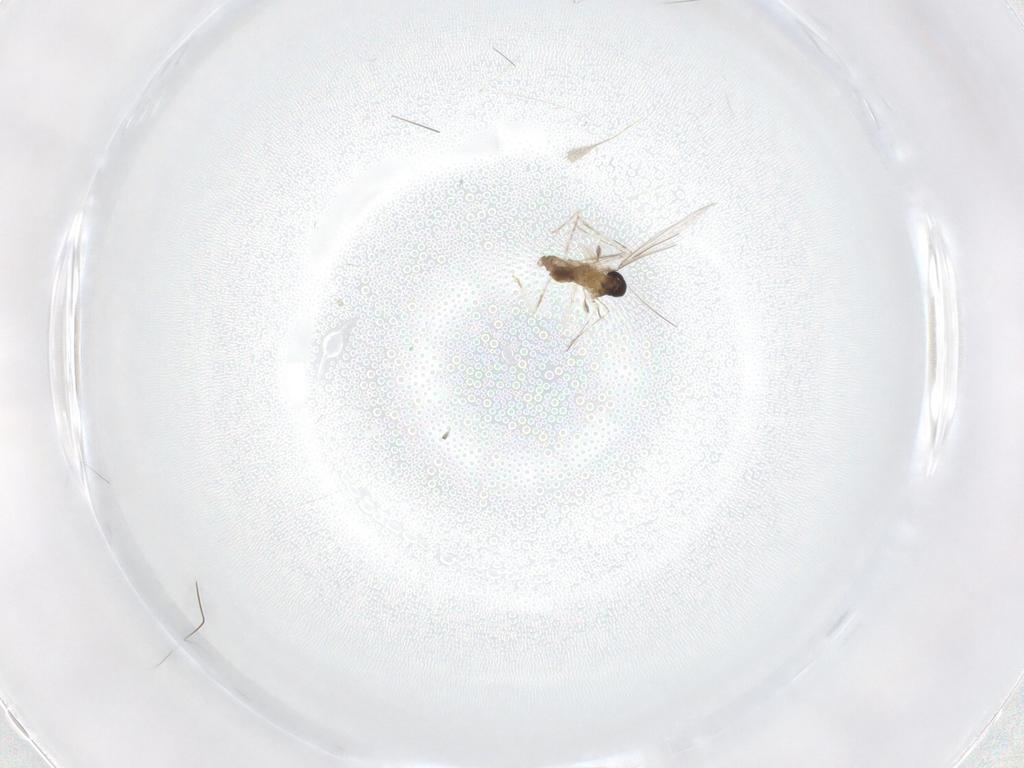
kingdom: Animalia
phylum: Arthropoda
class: Insecta
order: Diptera
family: Cecidomyiidae
